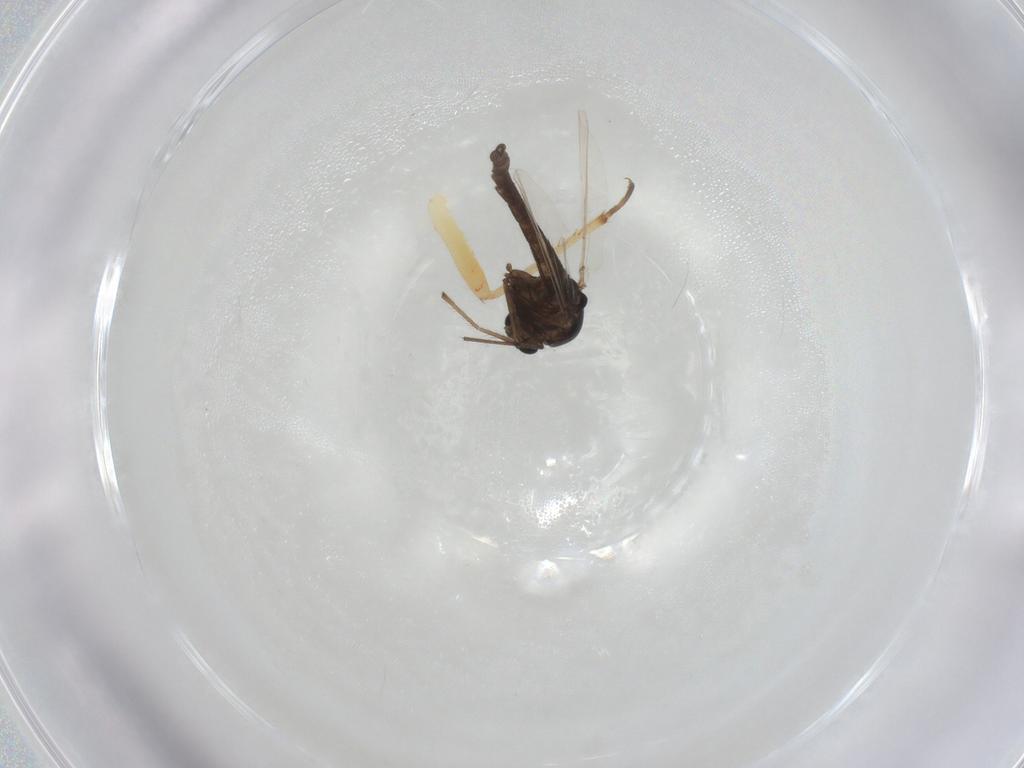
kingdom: Animalia
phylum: Arthropoda
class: Insecta
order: Diptera
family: Chironomidae
